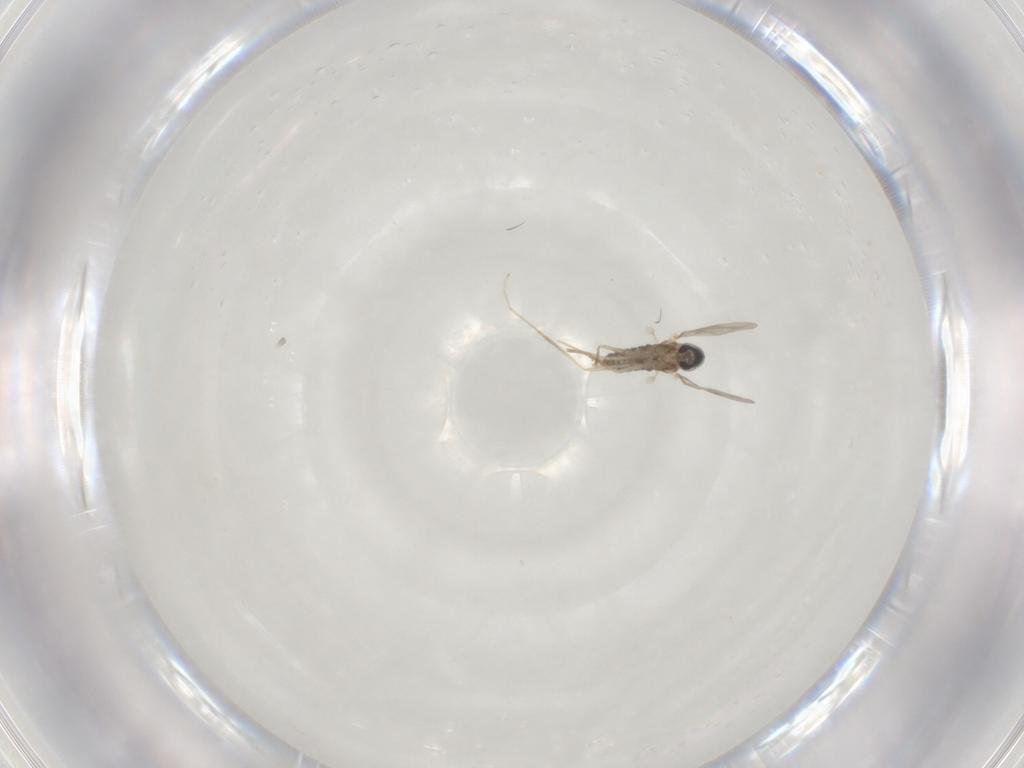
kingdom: Animalia
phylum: Arthropoda
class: Insecta
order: Diptera
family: Cecidomyiidae
